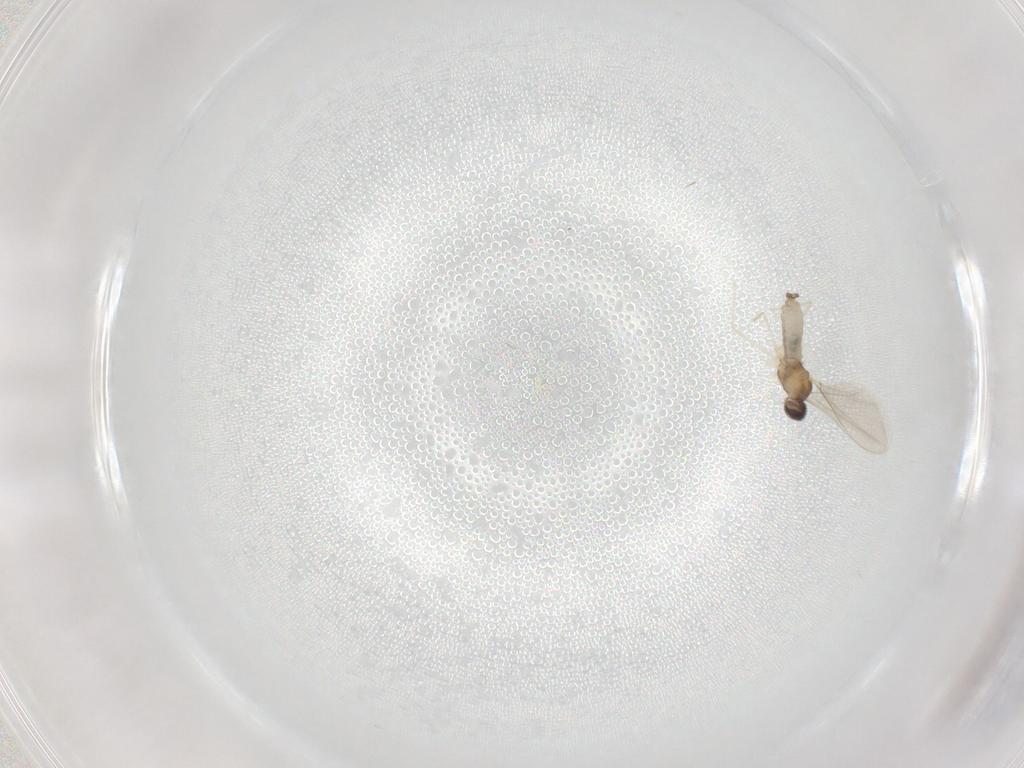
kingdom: Animalia
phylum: Arthropoda
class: Insecta
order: Diptera
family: Cecidomyiidae
